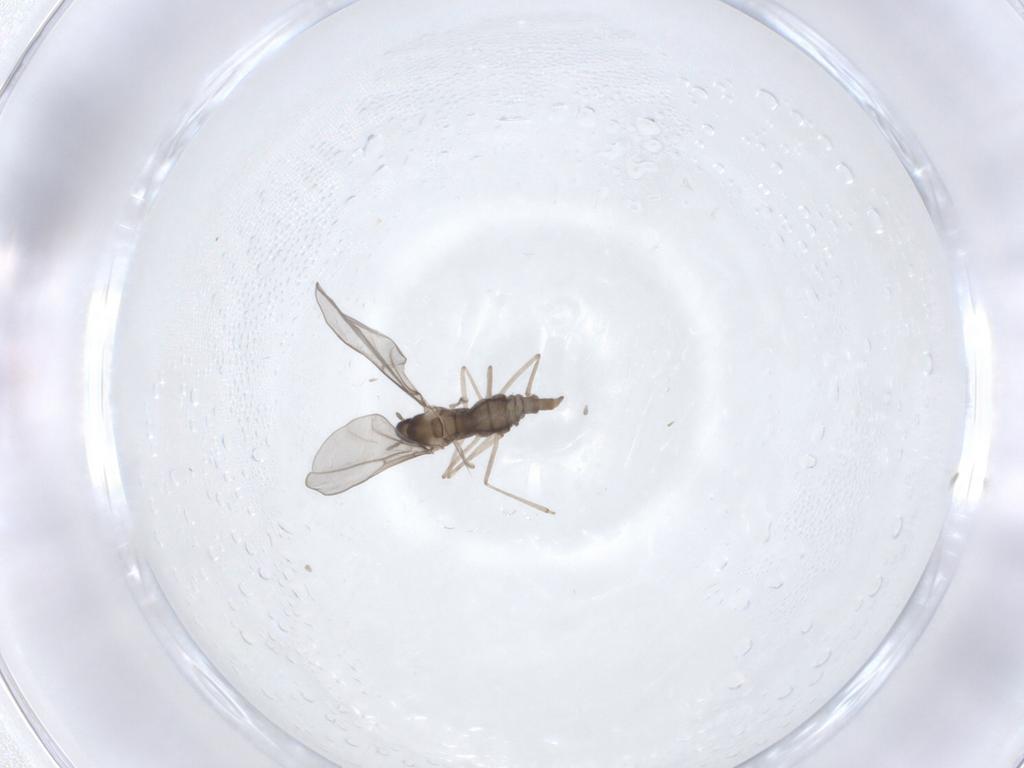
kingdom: Animalia
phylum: Arthropoda
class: Insecta
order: Diptera
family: Cecidomyiidae
